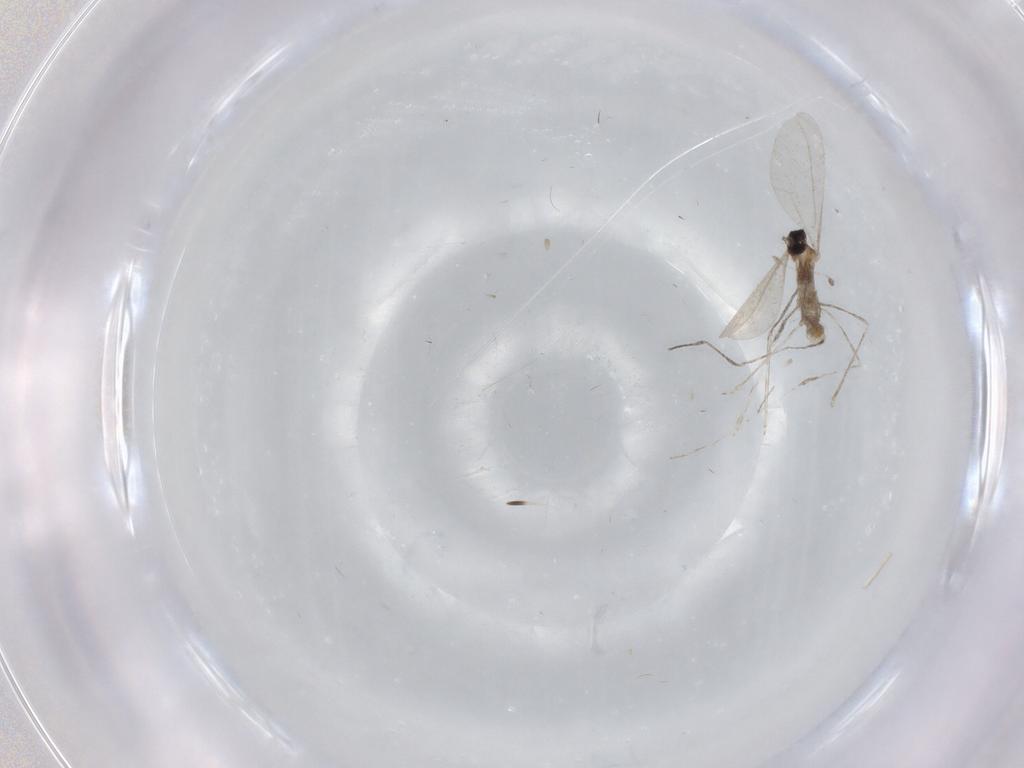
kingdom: Animalia
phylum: Arthropoda
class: Insecta
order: Diptera
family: Cecidomyiidae
